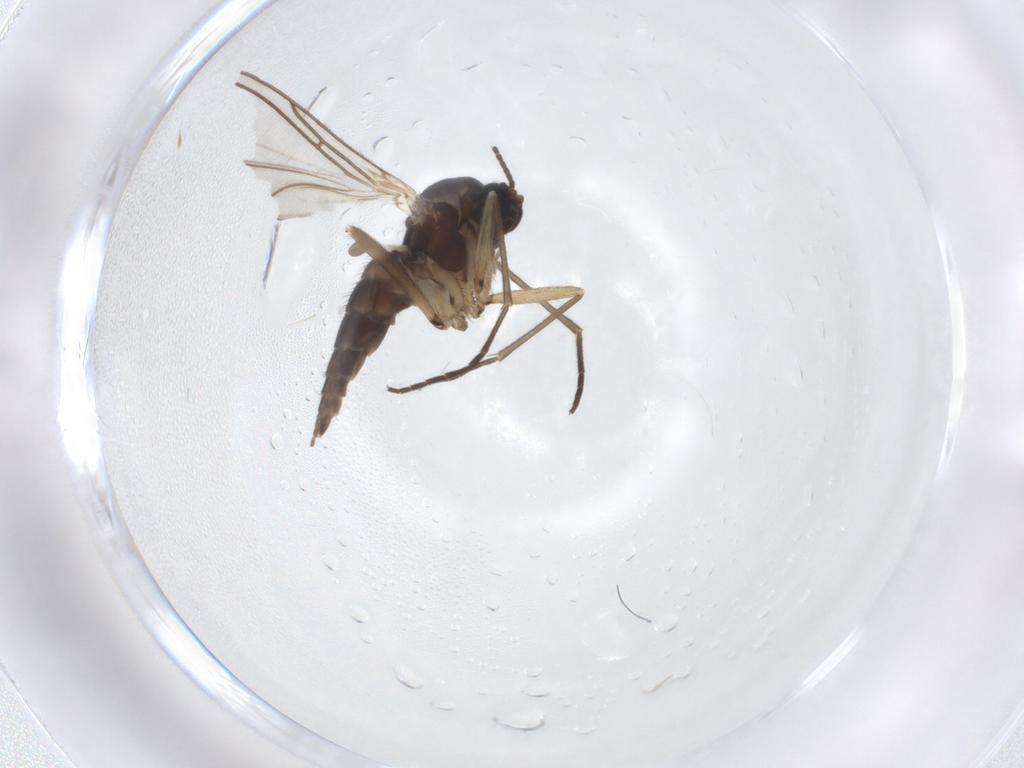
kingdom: Animalia
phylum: Arthropoda
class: Insecta
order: Diptera
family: Sciaridae
